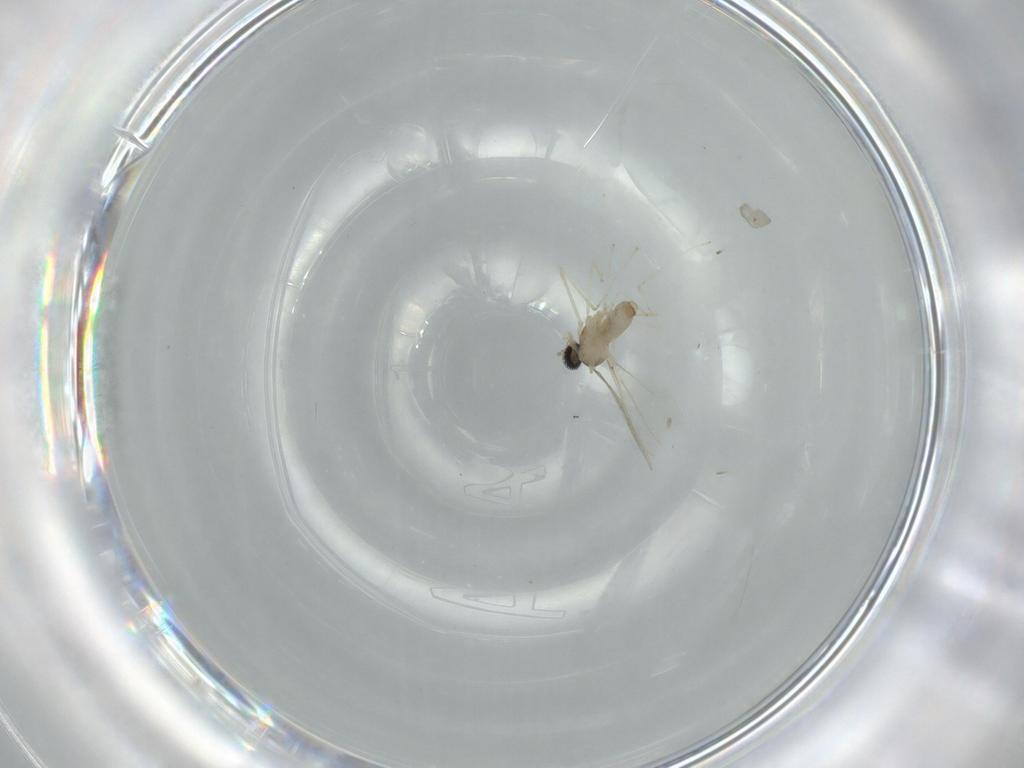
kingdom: Animalia
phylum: Arthropoda
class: Insecta
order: Diptera
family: Cecidomyiidae
